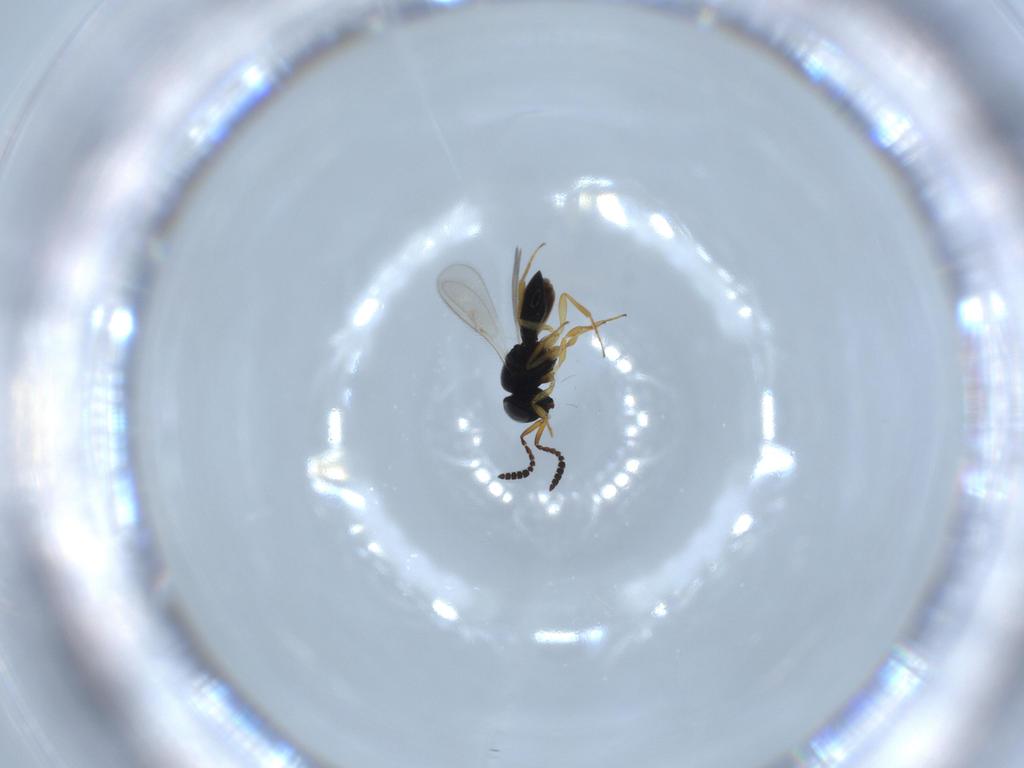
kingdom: Animalia
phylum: Arthropoda
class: Insecta
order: Hymenoptera
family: Scelionidae
